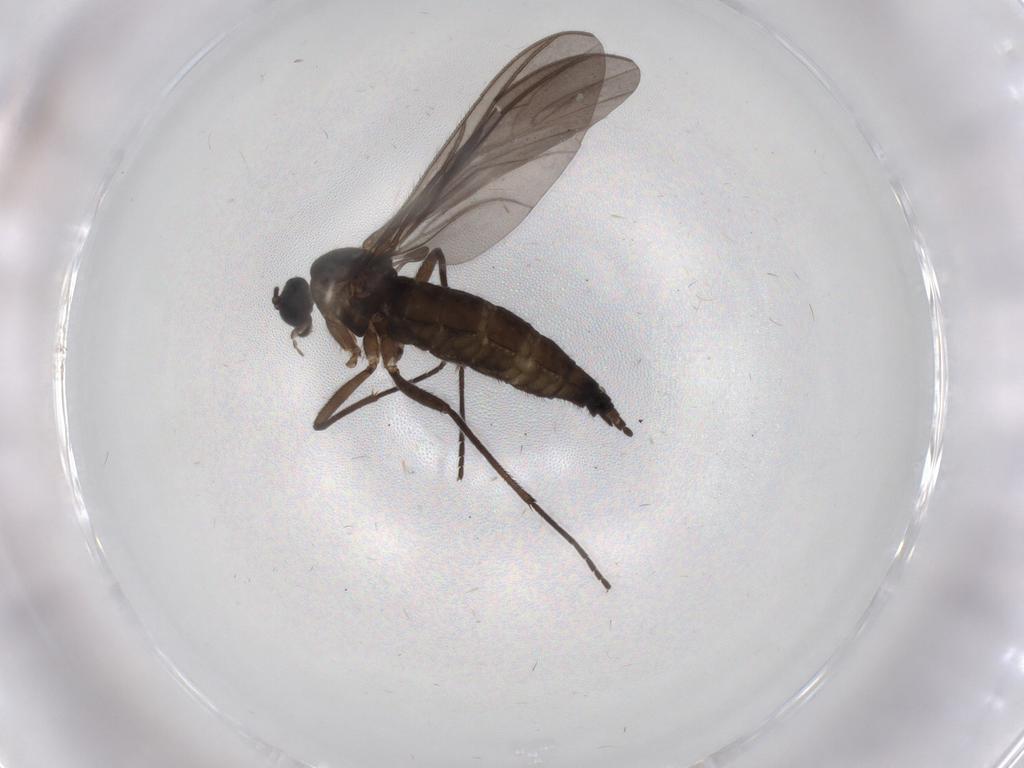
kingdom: Animalia
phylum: Arthropoda
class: Insecta
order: Diptera
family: Sciaridae
